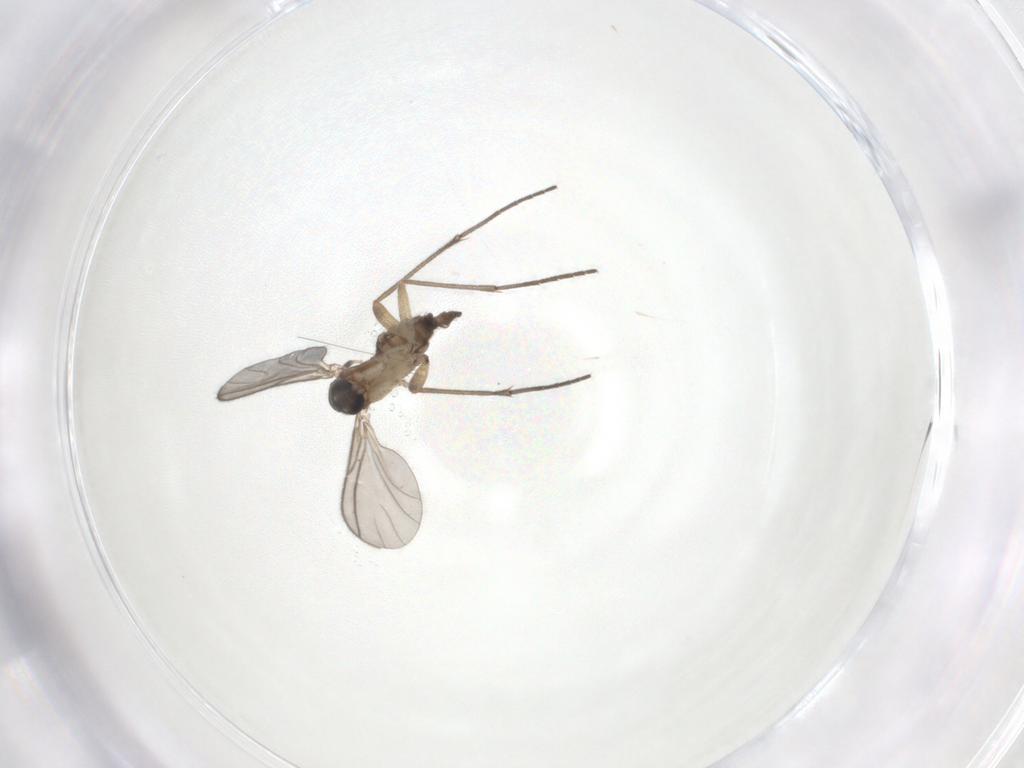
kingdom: Animalia
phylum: Arthropoda
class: Insecta
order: Diptera
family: Sciaridae
